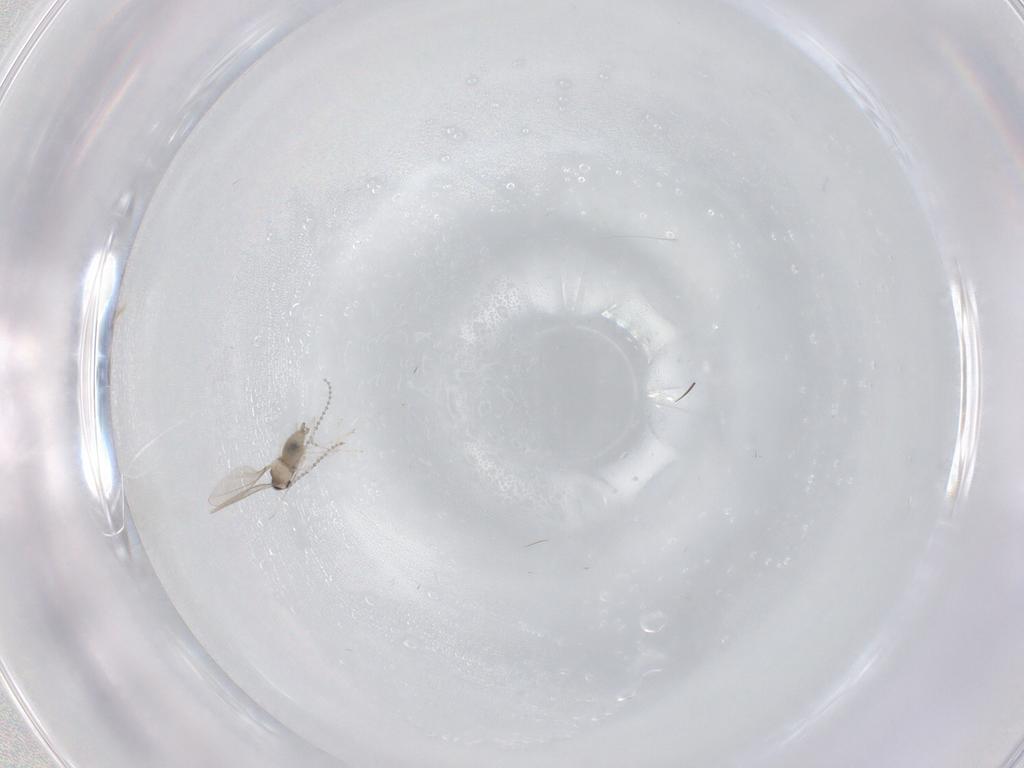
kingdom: Animalia
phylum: Arthropoda
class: Insecta
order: Diptera
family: Cecidomyiidae
